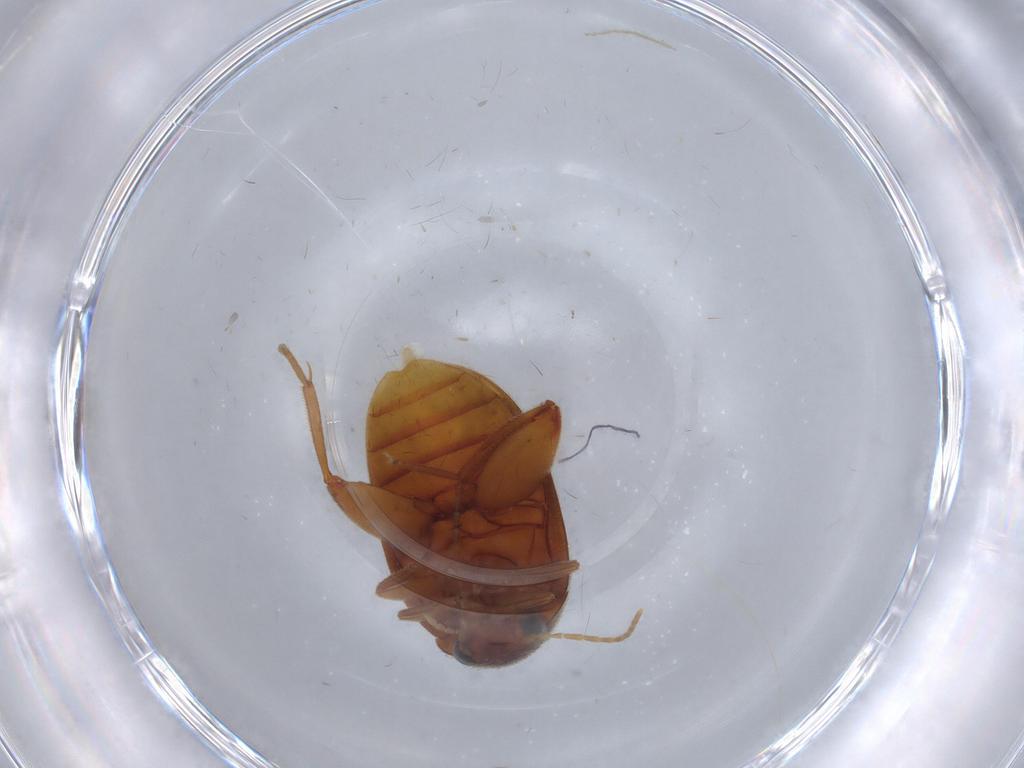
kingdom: Animalia
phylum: Arthropoda
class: Insecta
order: Coleoptera
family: Scirtidae
